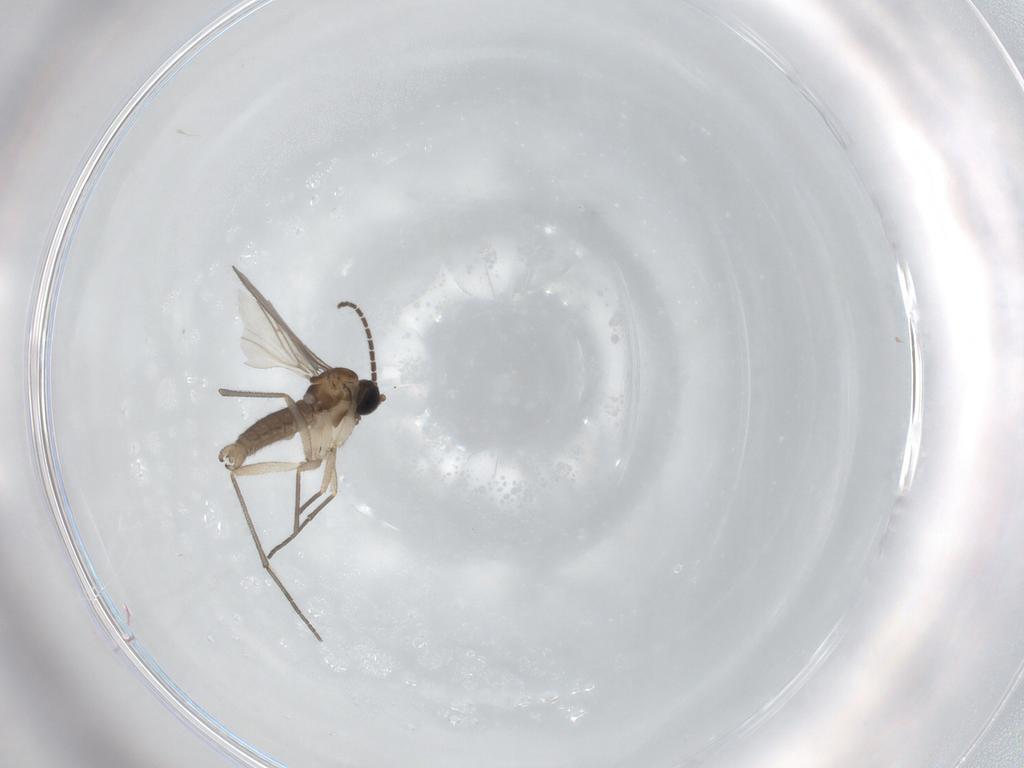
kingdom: Animalia
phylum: Arthropoda
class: Insecta
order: Diptera
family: Sciaridae
